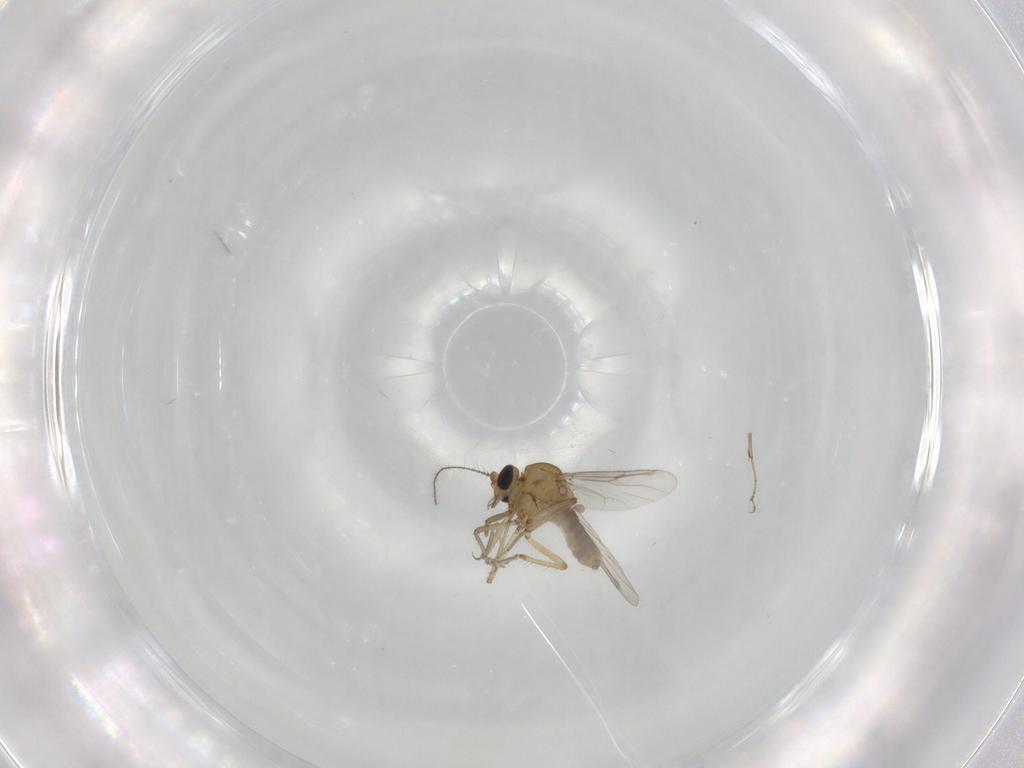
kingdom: Animalia
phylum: Arthropoda
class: Insecta
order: Diptera
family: Ceratopogonidae
